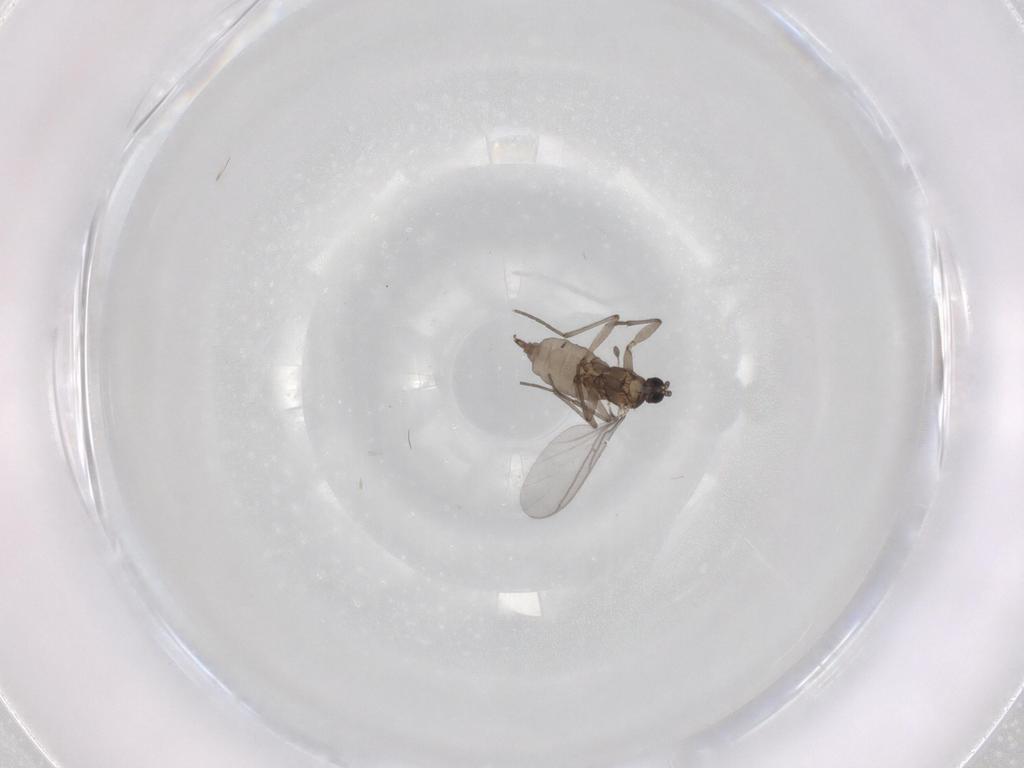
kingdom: Animalia
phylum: Arthropoda
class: Insecta
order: Diptera
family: Sciaridae
